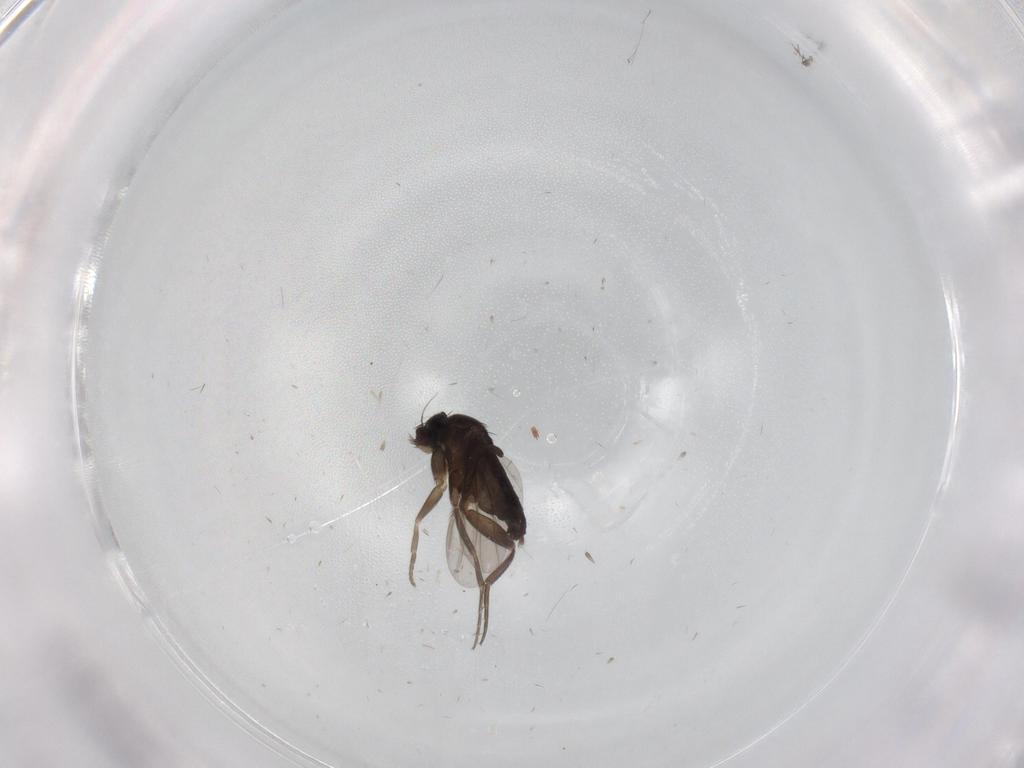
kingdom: Animalia
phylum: Arthropoda
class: Insecta
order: Diptera
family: Chironomidae
